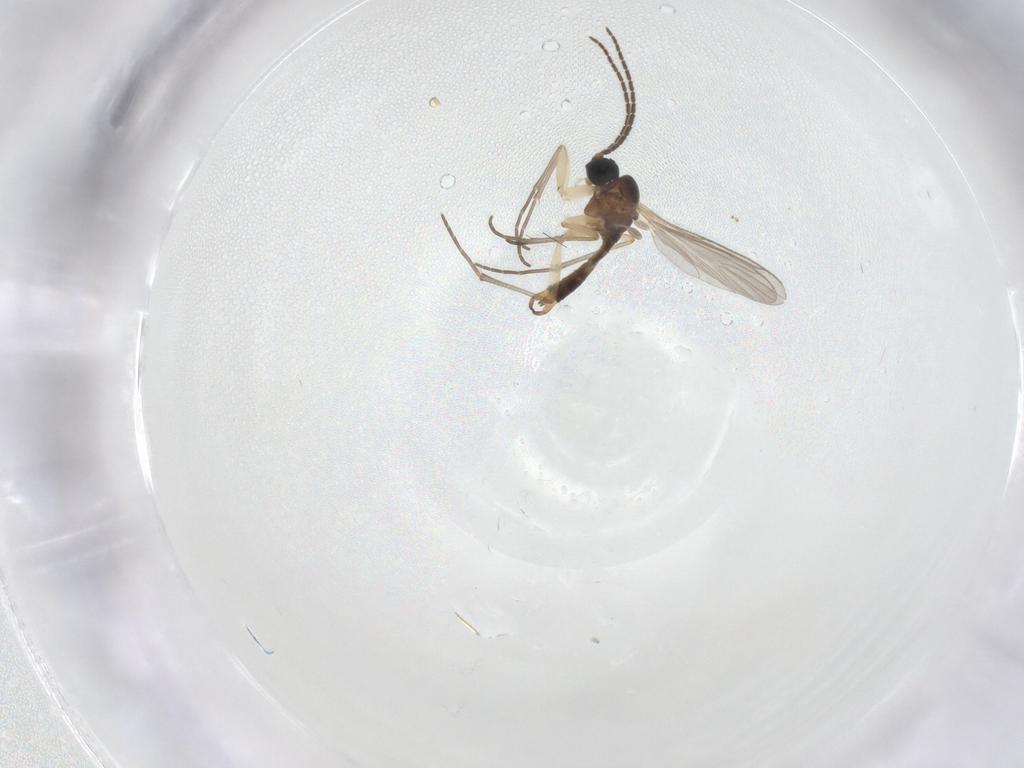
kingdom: Animalia
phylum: Arthropoda
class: Insecta
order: Diptera
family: Sciaridae
